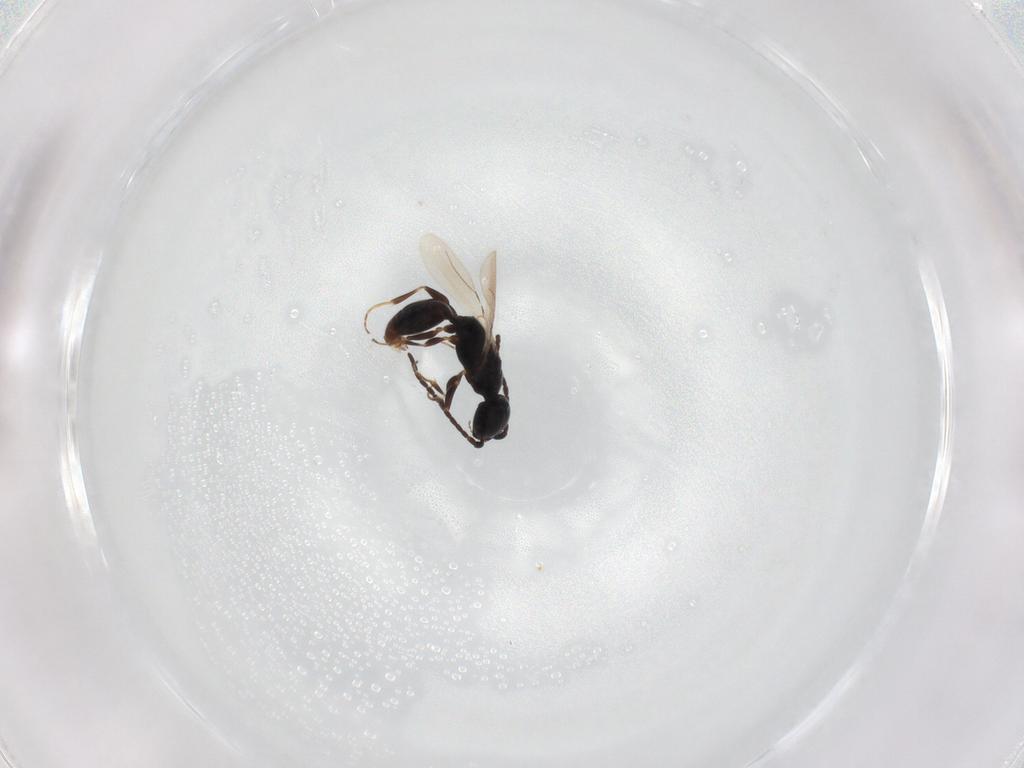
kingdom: Animalia
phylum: Arthropoda
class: Insecta
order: Hymenoptera
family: Bethylidae
